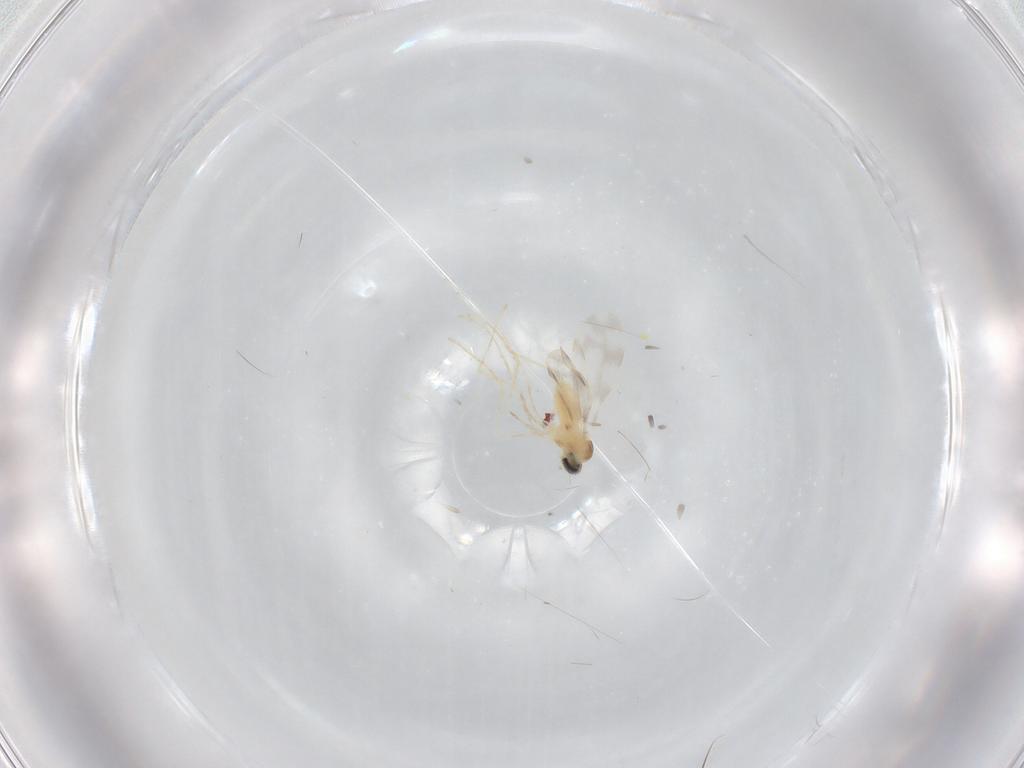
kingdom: Animalia
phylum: Arthropoda
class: Insecta
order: Diptera
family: Cecidomyiidae
